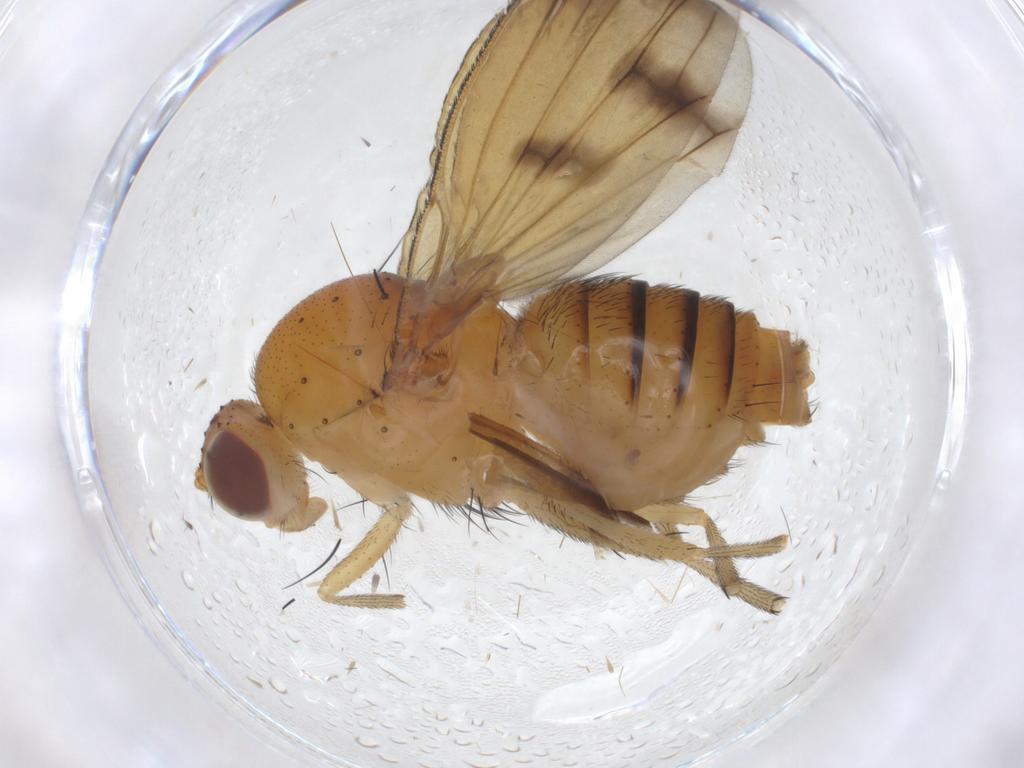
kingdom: Animalia
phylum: Arthropoda
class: Insecta
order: Diptera
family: Stratiomyidae
